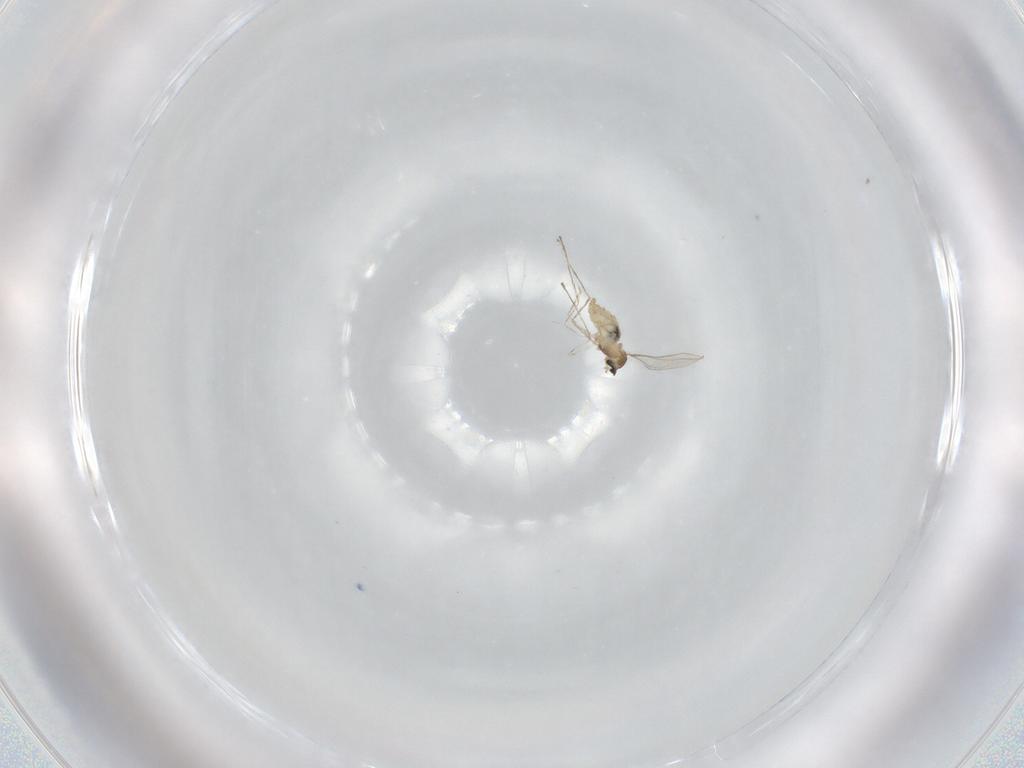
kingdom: Animalia
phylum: Arthropoda
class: Insecta
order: Diptera
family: Cecidomyiidae
